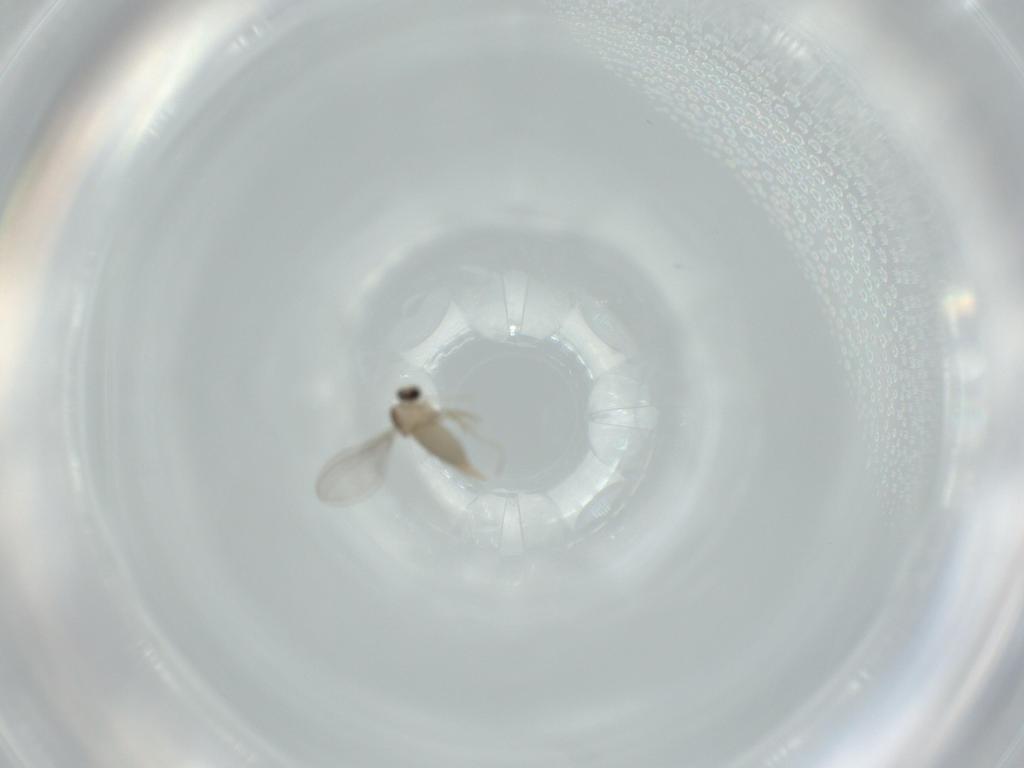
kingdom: Animalia
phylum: Arthropoda
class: Insecta
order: Diptera
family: Cecidomyiidae
